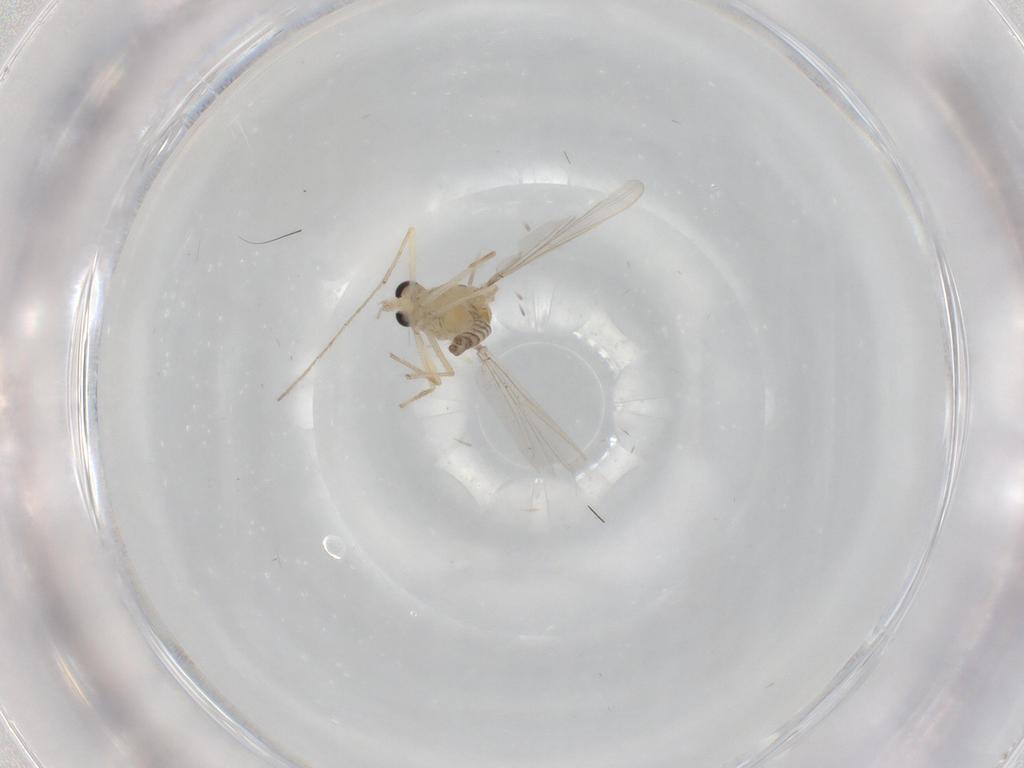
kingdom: Animalia
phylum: Arthropoda
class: Insecta
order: Diptera
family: Chironomidae
